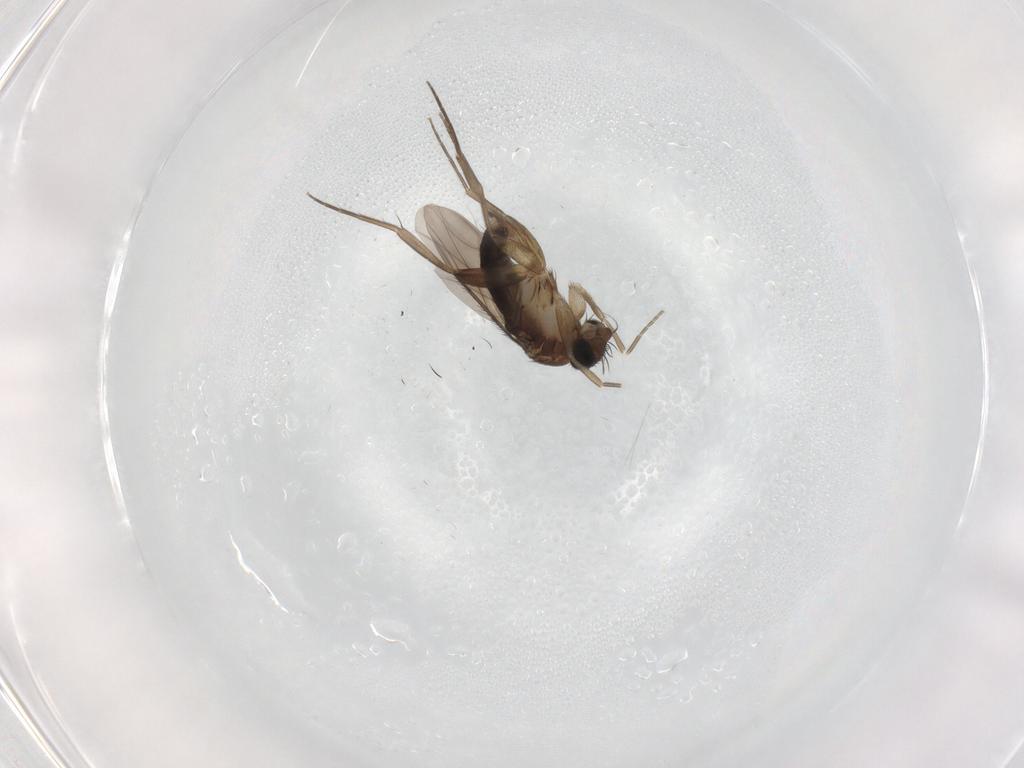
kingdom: Animalia
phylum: Arthropoda
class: Insecta
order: Diptera
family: Phoridae
